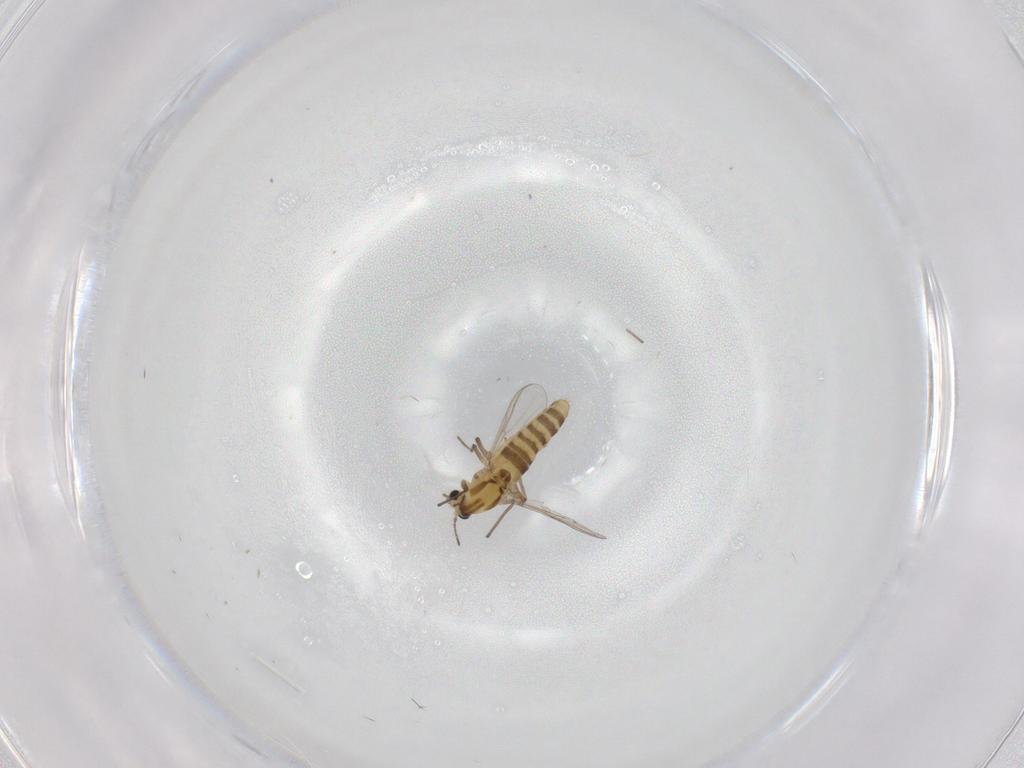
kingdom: Animalia
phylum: Arthropoda
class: Insecta
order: Diptera
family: Chironomidae
